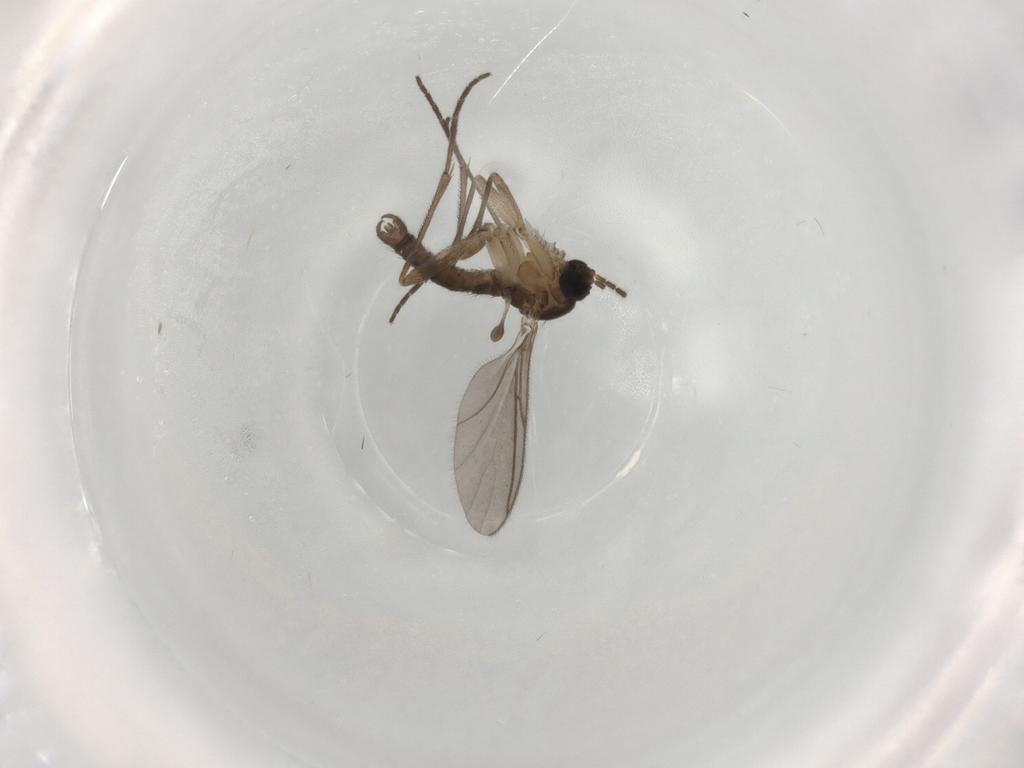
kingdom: Animalia
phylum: Arthropoda
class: Insecta
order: Diptera
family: Sciaridae
